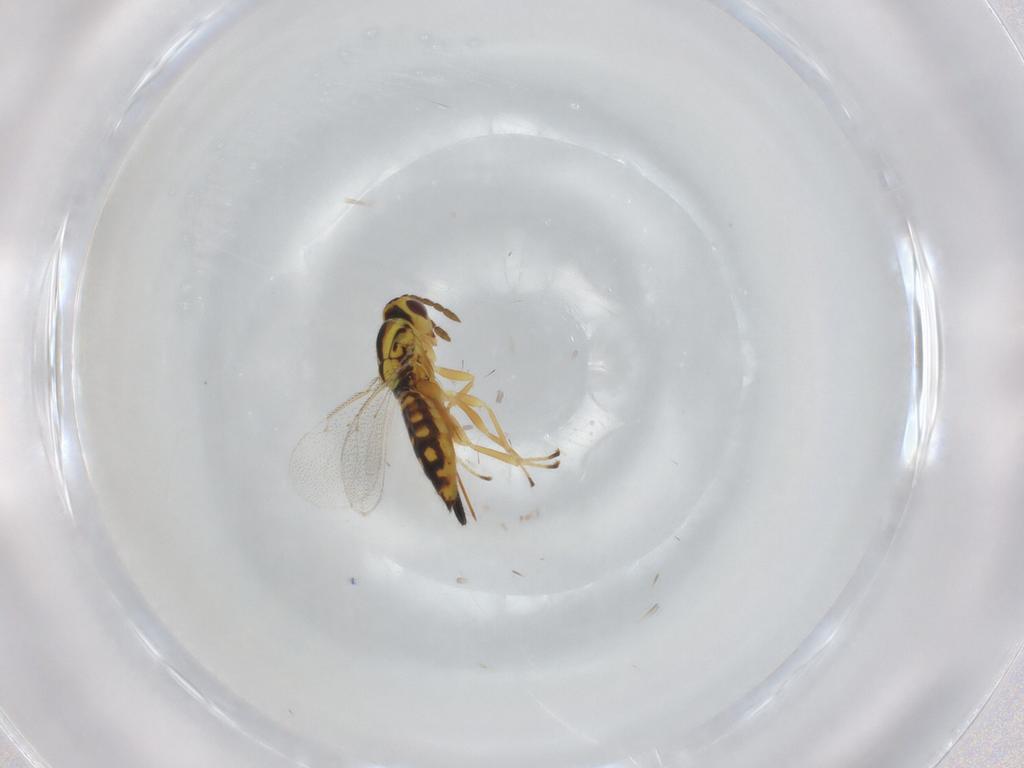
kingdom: Animalia
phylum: Arthropoda
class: Insecta
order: Hymenoptera
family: Eulophidae
